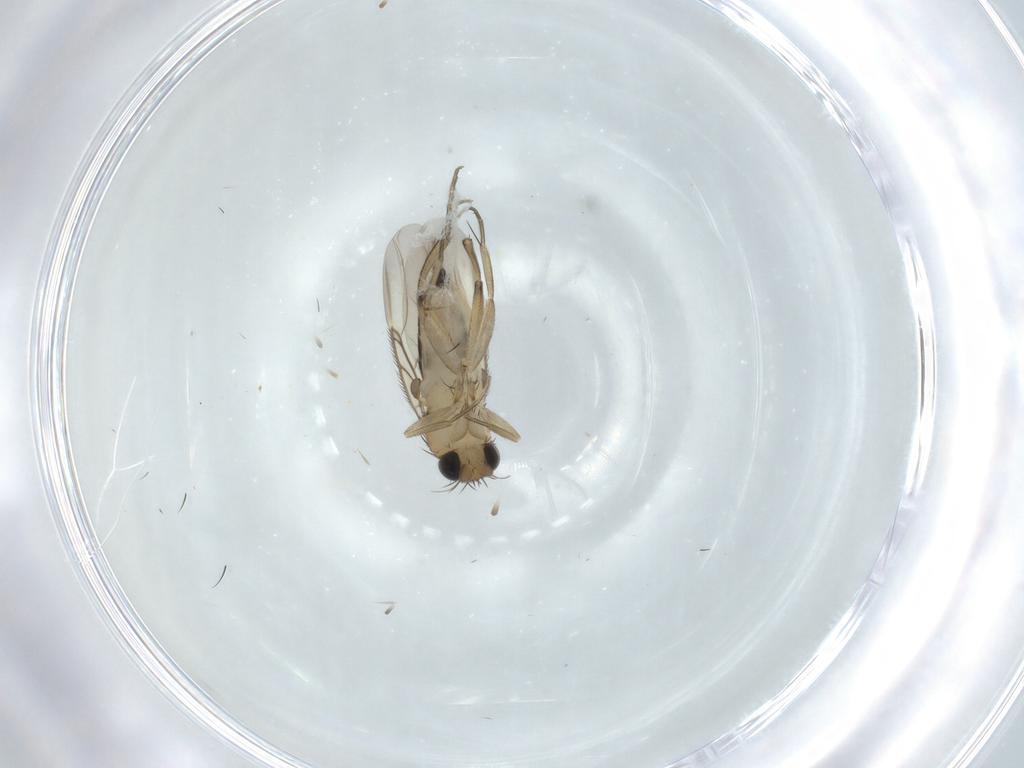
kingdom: Animalia
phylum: Arthropoda
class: Insecta
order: Diptera
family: Phoridae
